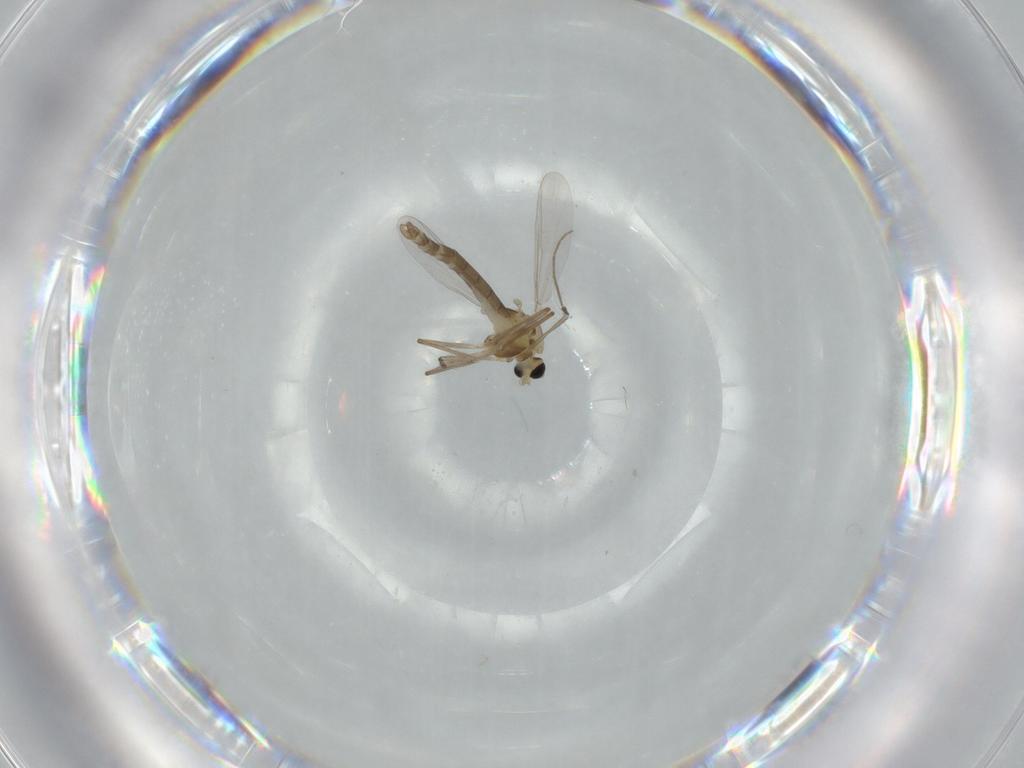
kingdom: Animalia
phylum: Arthropoda
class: Insecta
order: Diptera
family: Chironomidae
